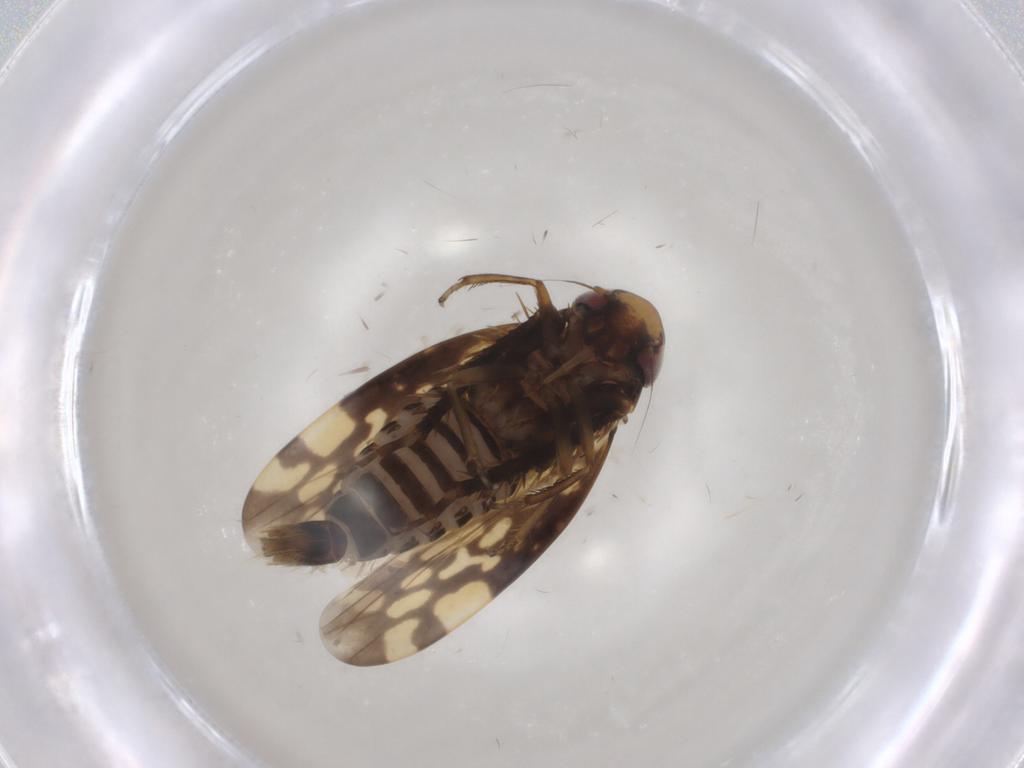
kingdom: Animalia
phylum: Arthropoda
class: Insecta
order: Hemiptera
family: Cicadellidae
